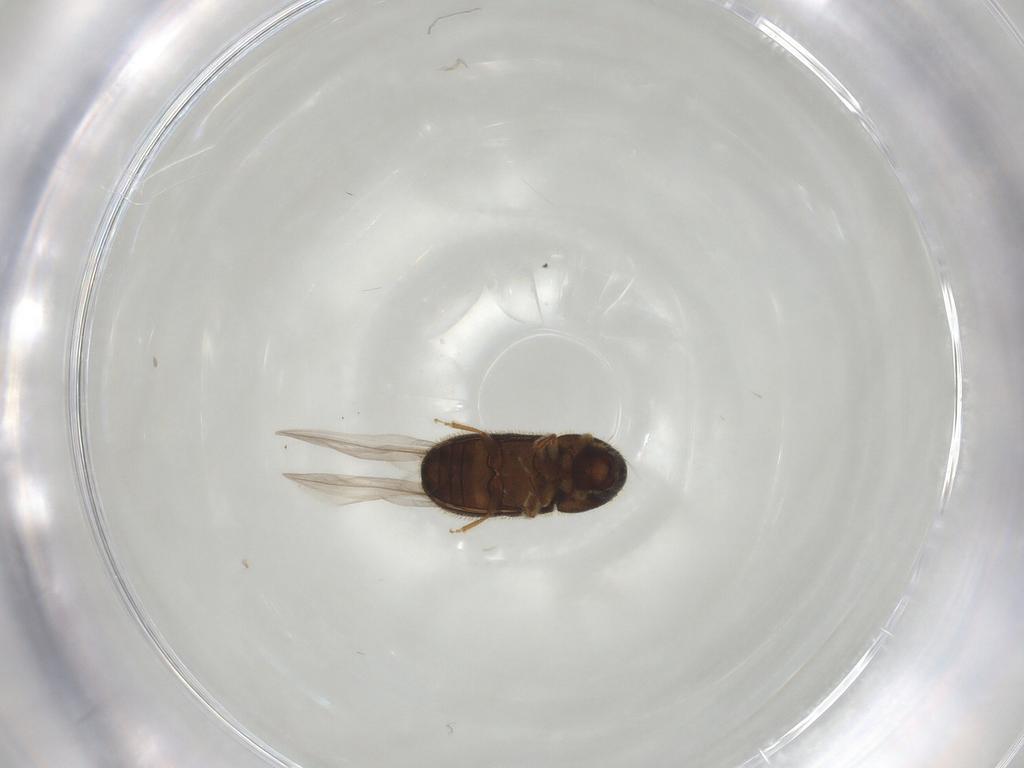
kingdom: Animalia
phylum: Arthropoda
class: Insecta
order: Coleoptera
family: Curculionidae
